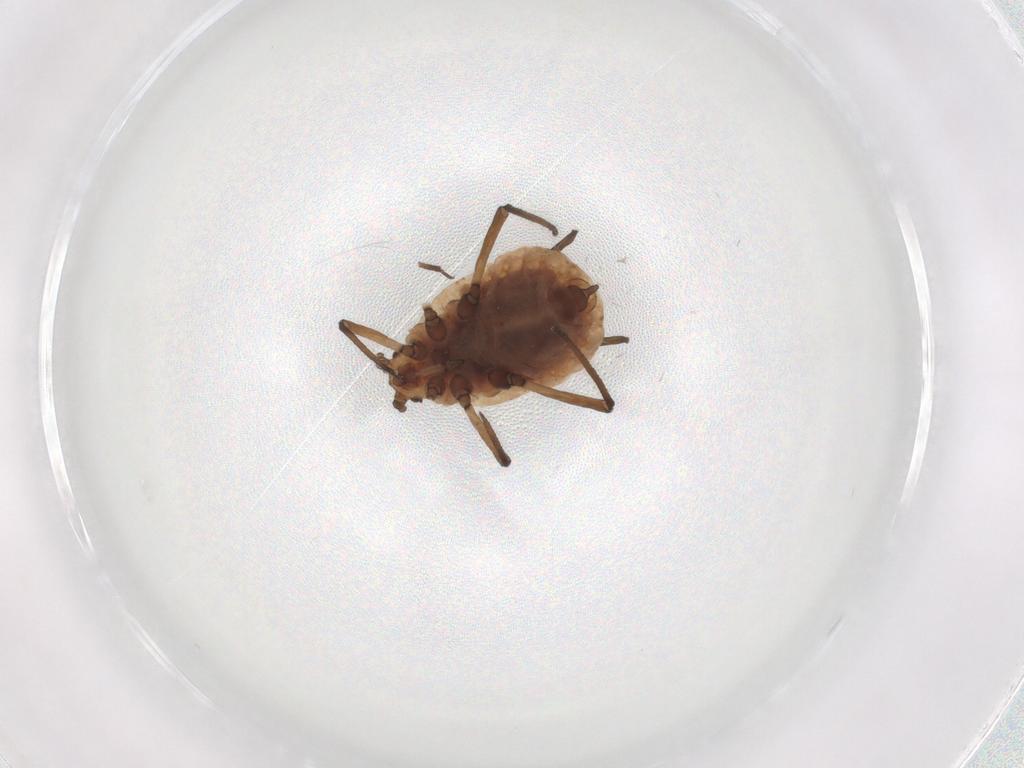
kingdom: Animalia
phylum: Arthropoda
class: Insecta
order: Hemiptera
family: Aphididae
